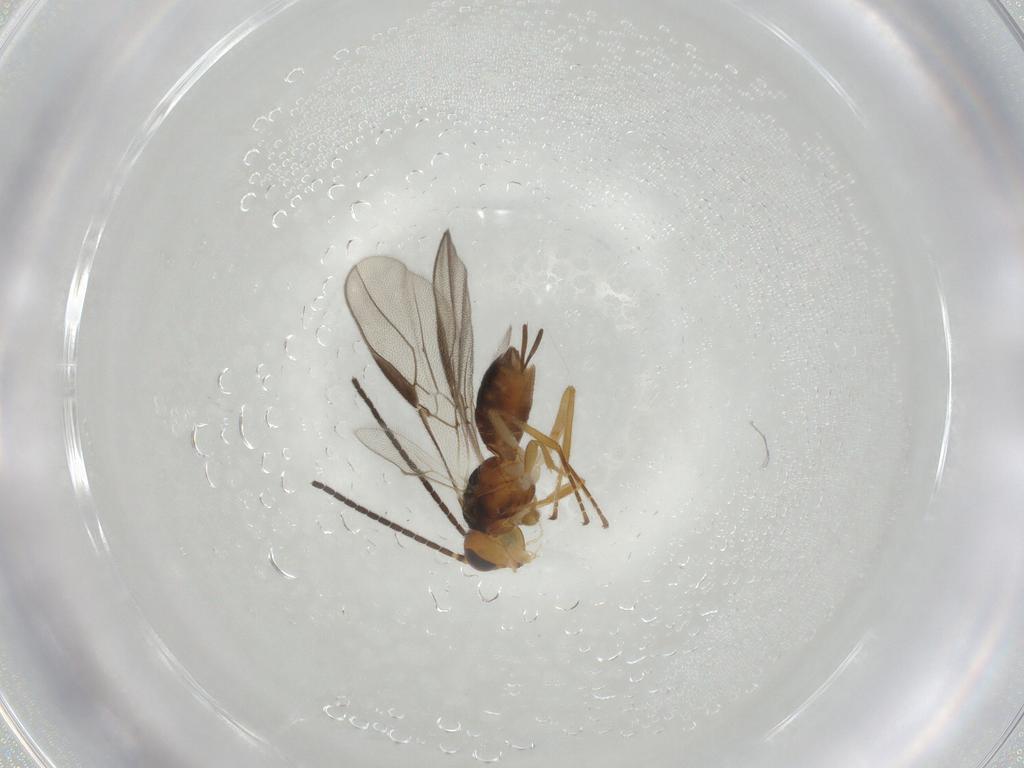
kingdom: Animalia
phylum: Arthropoda
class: Insecta
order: Hymenoptera
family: Braconidae
